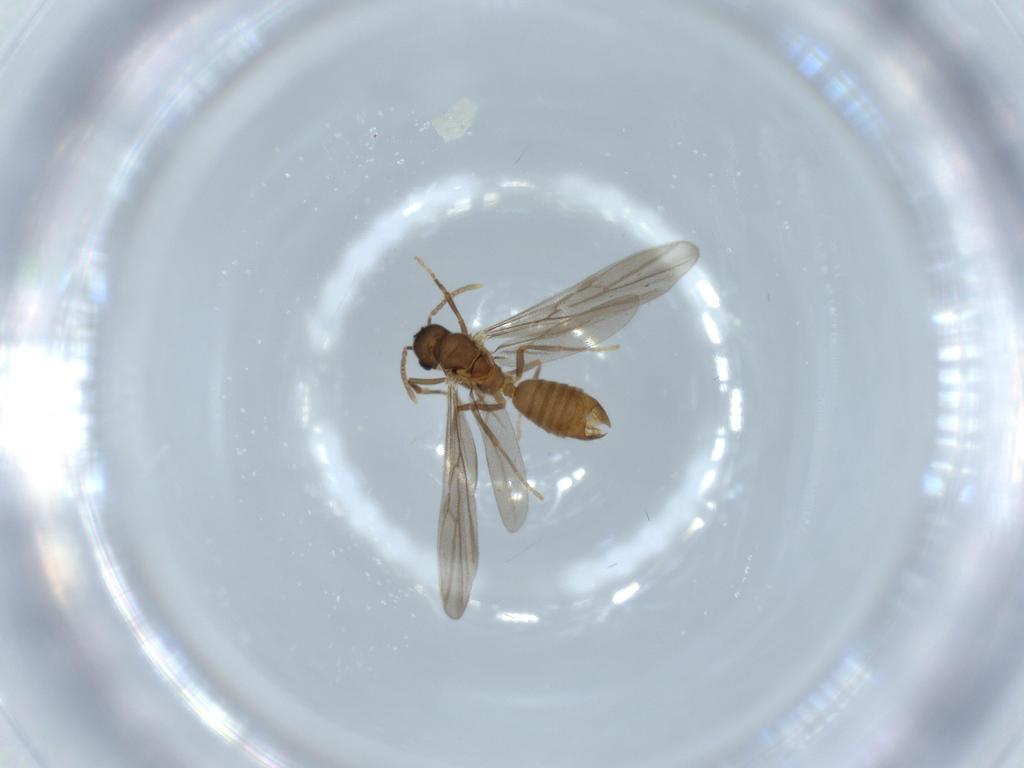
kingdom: Animalia
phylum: Arthropoda
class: Insecta
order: Hymenoptera
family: Formicidae
